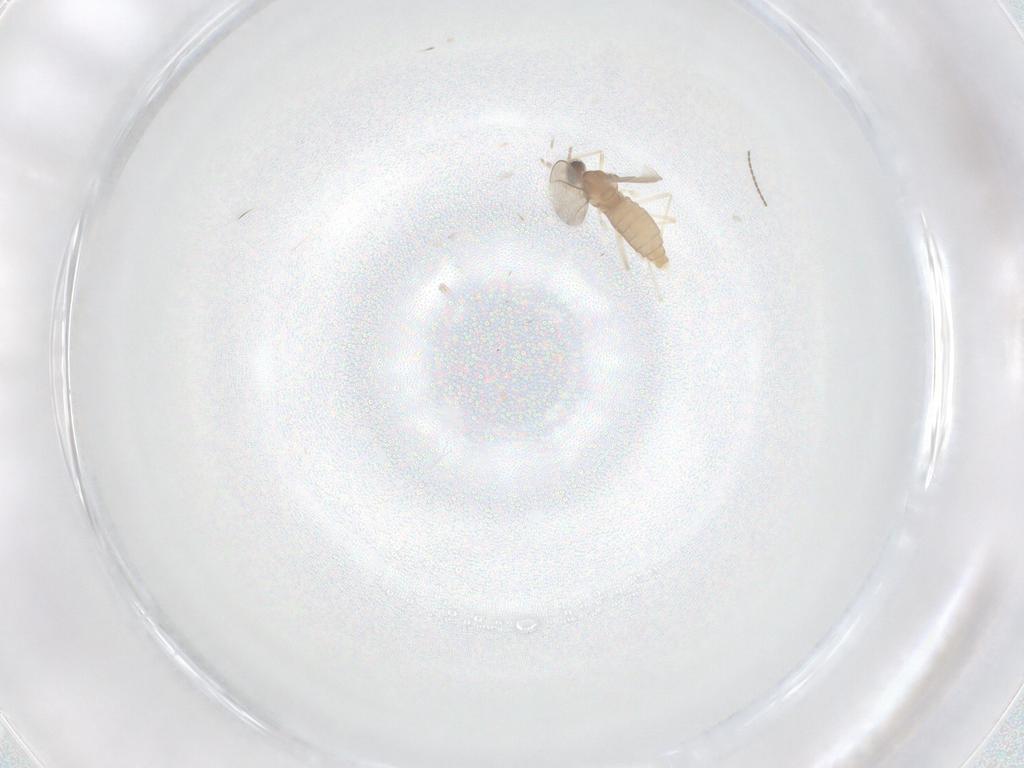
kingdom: Animalia
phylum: Arthropoda
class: Insecta
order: Diptera
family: Cecidomyiidae
